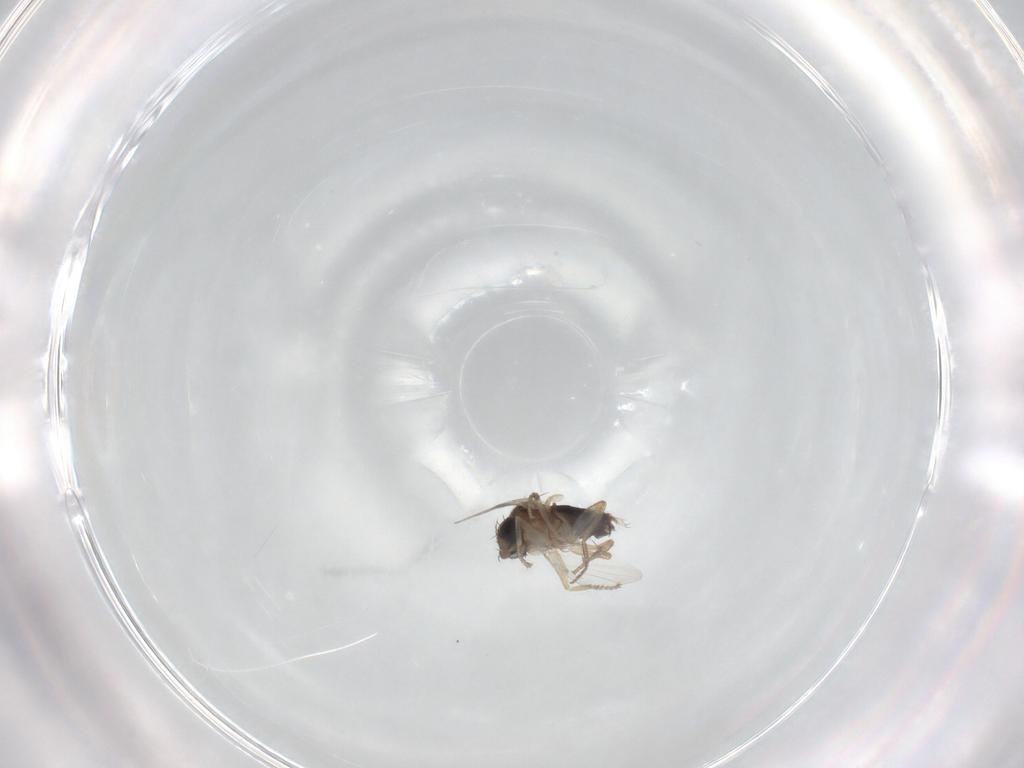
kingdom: Animalia
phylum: Arthropoda
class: Insecta
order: Diptera
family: Phoridae
